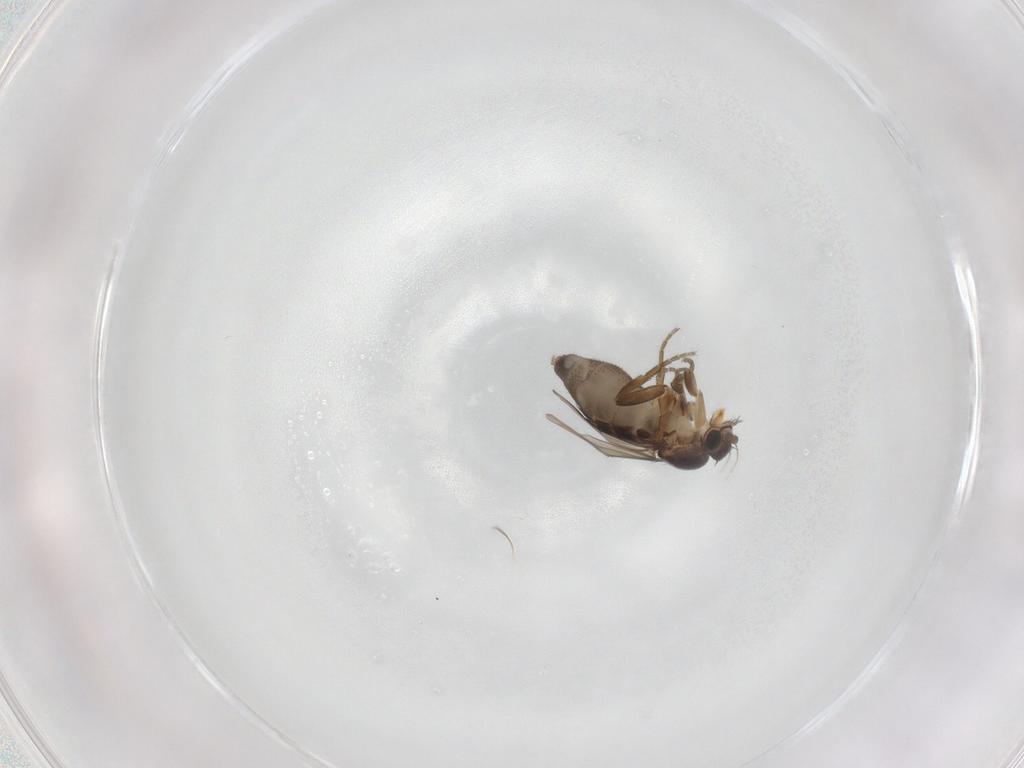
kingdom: Animalia
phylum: Arthropoda
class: Insecta
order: Diptera
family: Phoridae
